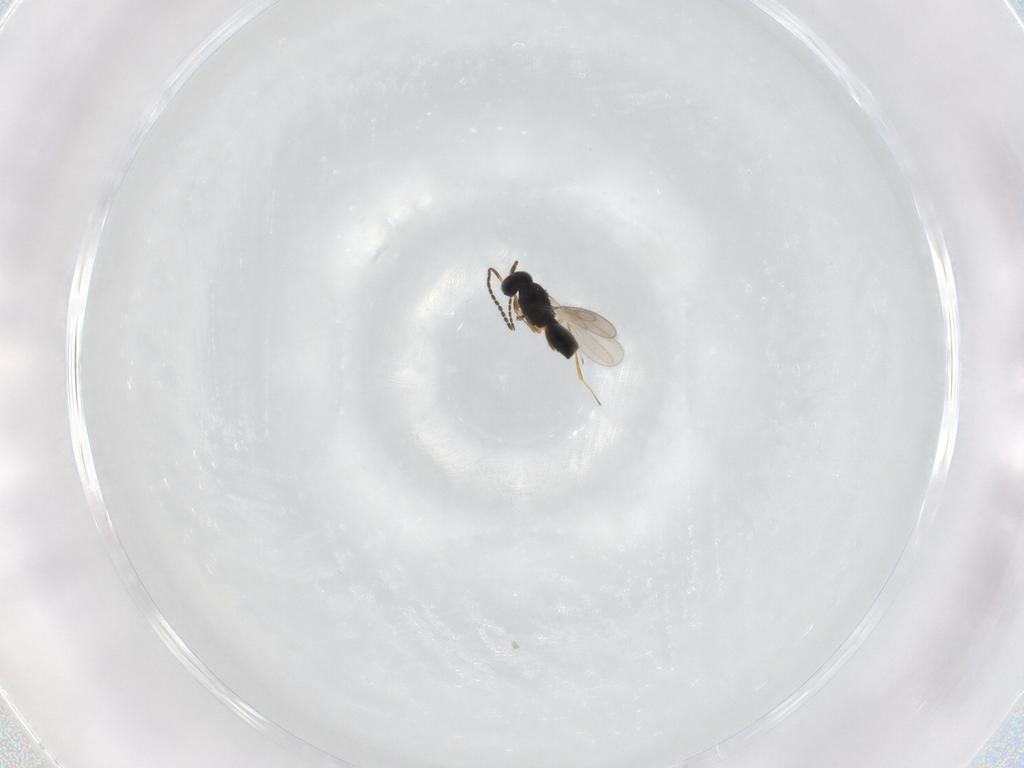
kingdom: Animalia
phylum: Arthropoda
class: Insecta
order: Hymenoptera
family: Scelionidae
